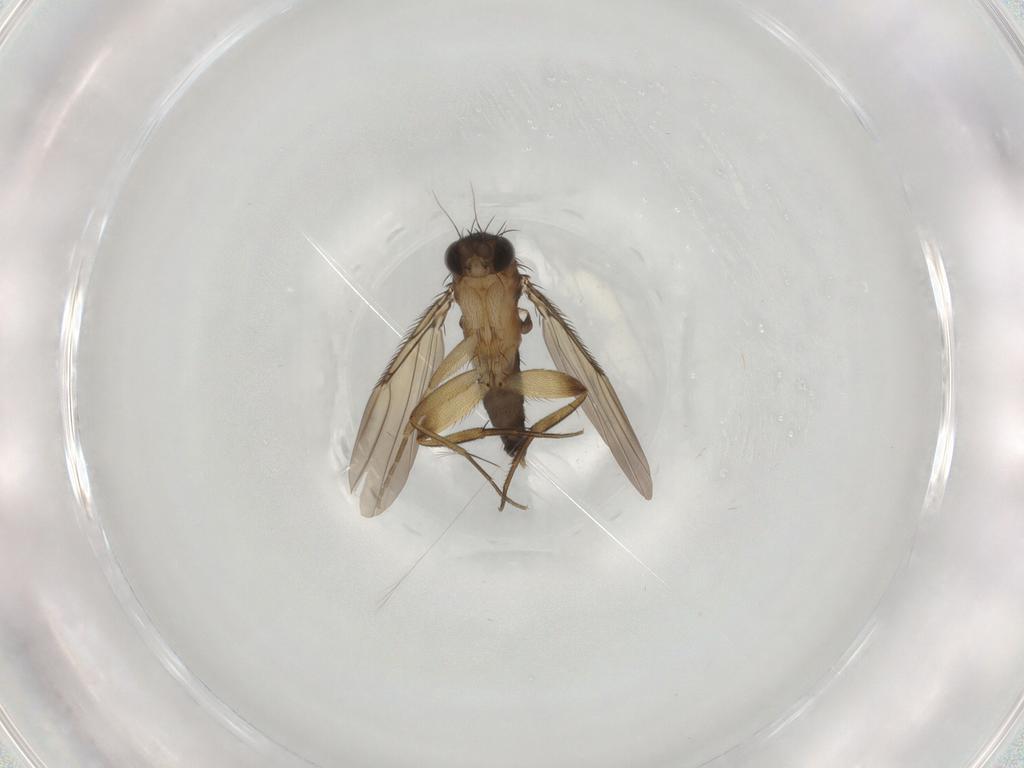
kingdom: Animalia
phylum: Arthropoda
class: Insecta
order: Diptera
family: Phoridae
